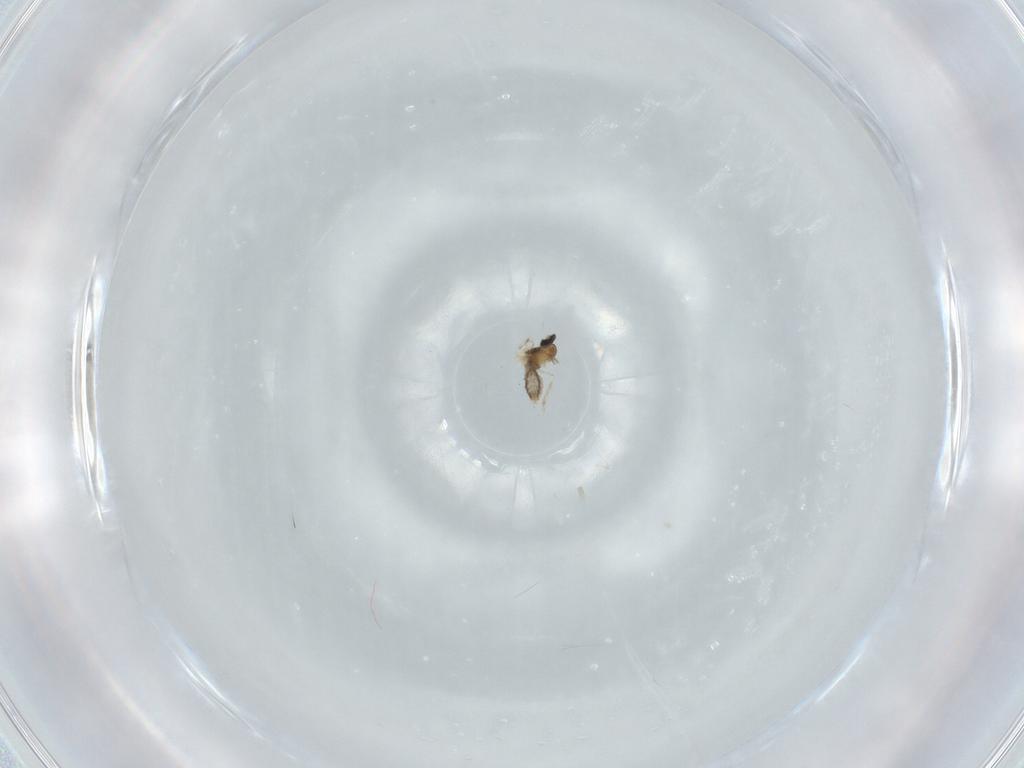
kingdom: Animalia
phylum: Arthropoda
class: Insecta
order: Diptera
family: Cecidomyiidae
